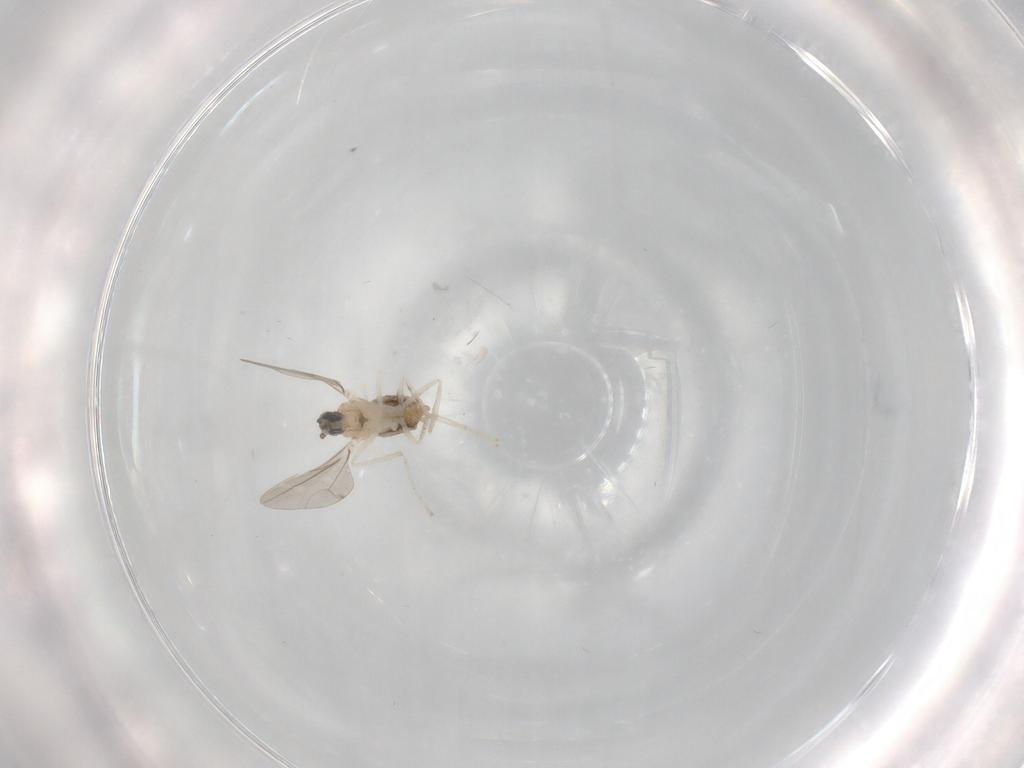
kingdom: Animalia
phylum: Arthropoda
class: Insecta
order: Diptera
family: Cecidomyiidae
